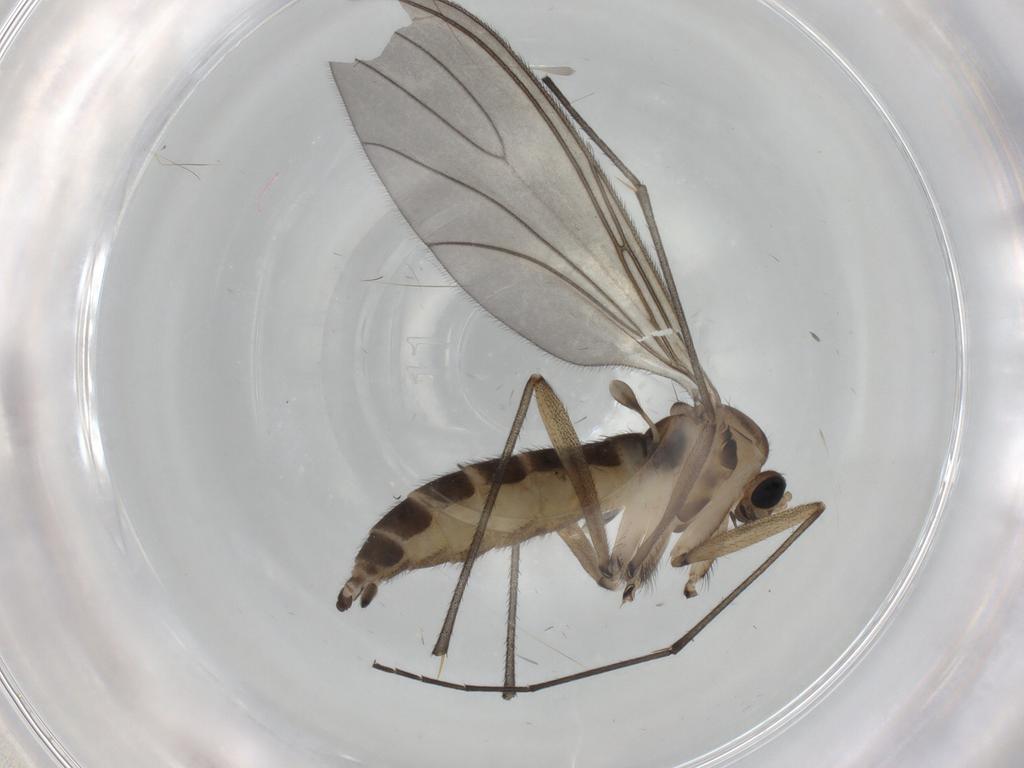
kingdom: Animalia
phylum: Arthropoda
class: Insecta
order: Diptera
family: Sciaridae
